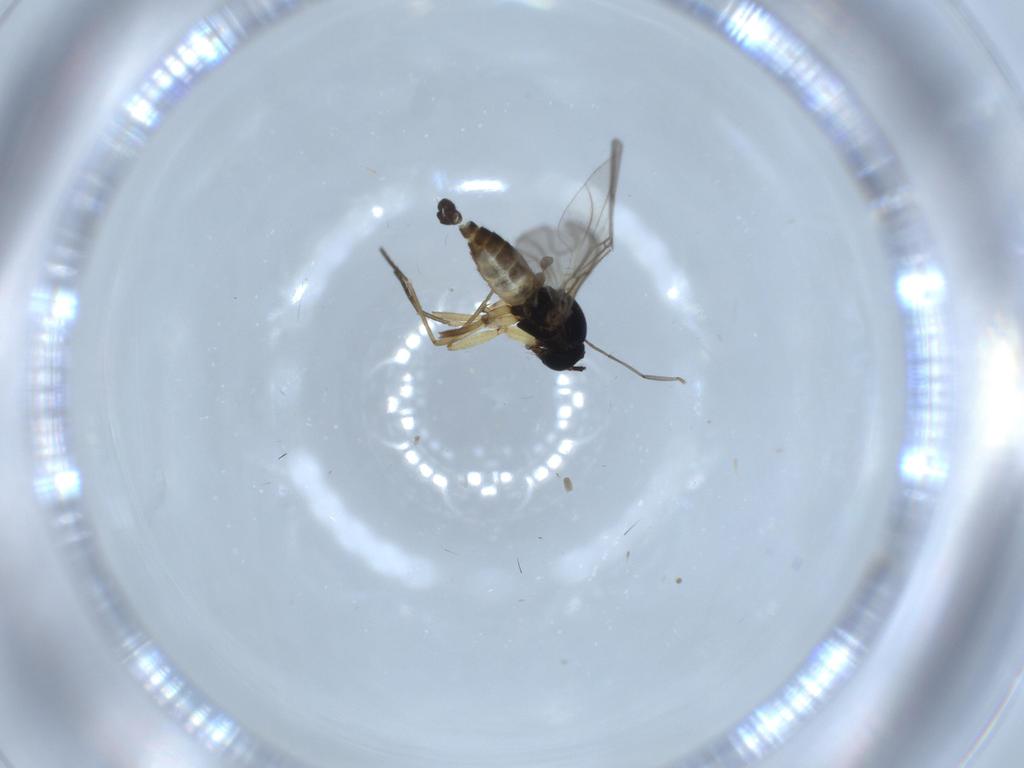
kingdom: Animalia
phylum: Arthropoda
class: Insecta
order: Diptera
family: Sciaridae
